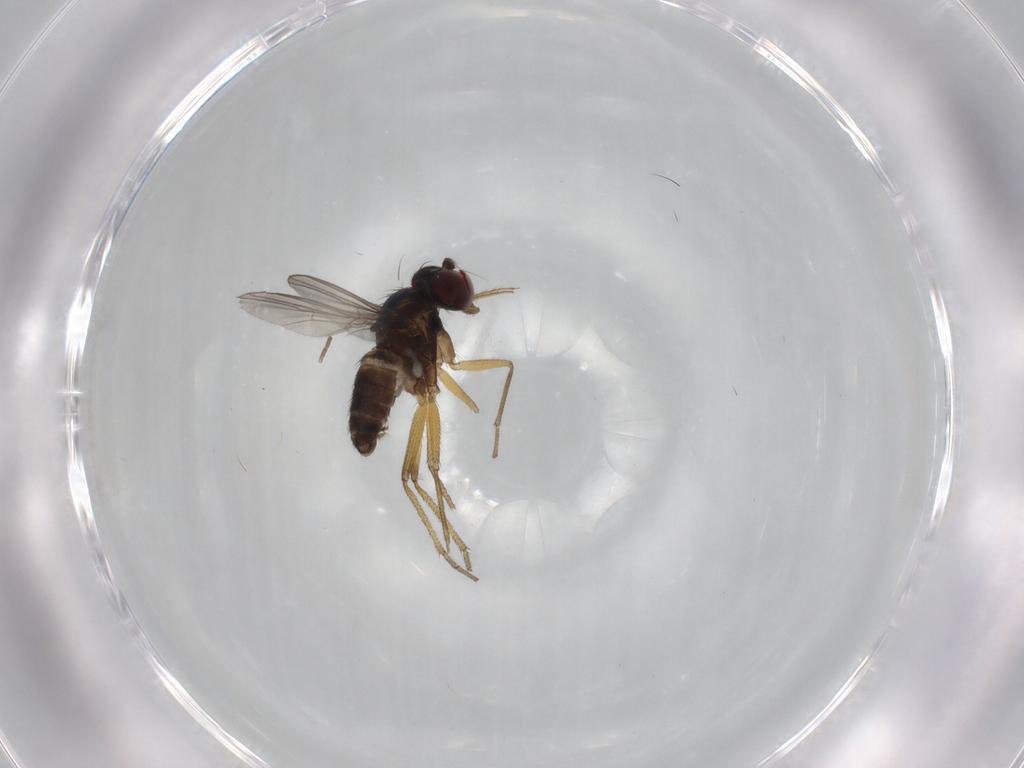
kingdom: Animalia
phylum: Arthropoda
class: Insecta
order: Diptera
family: Dolichopodidae
